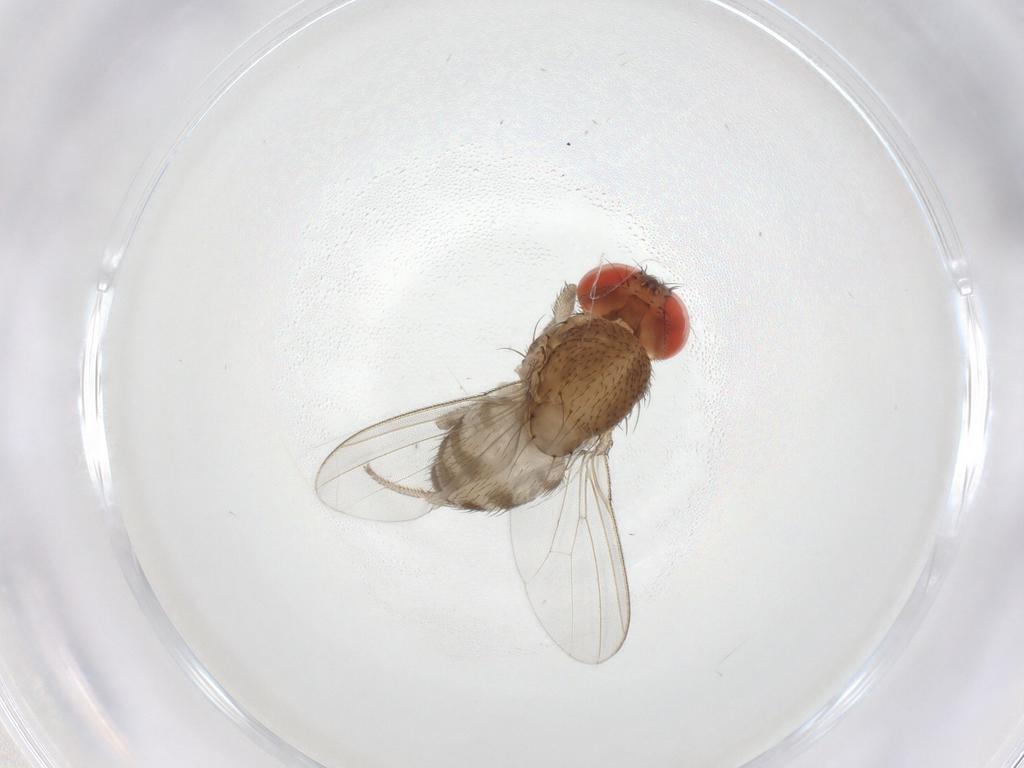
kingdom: Animalia
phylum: Arthropoda
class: Insecta
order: Diptera
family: Drosophilidae
